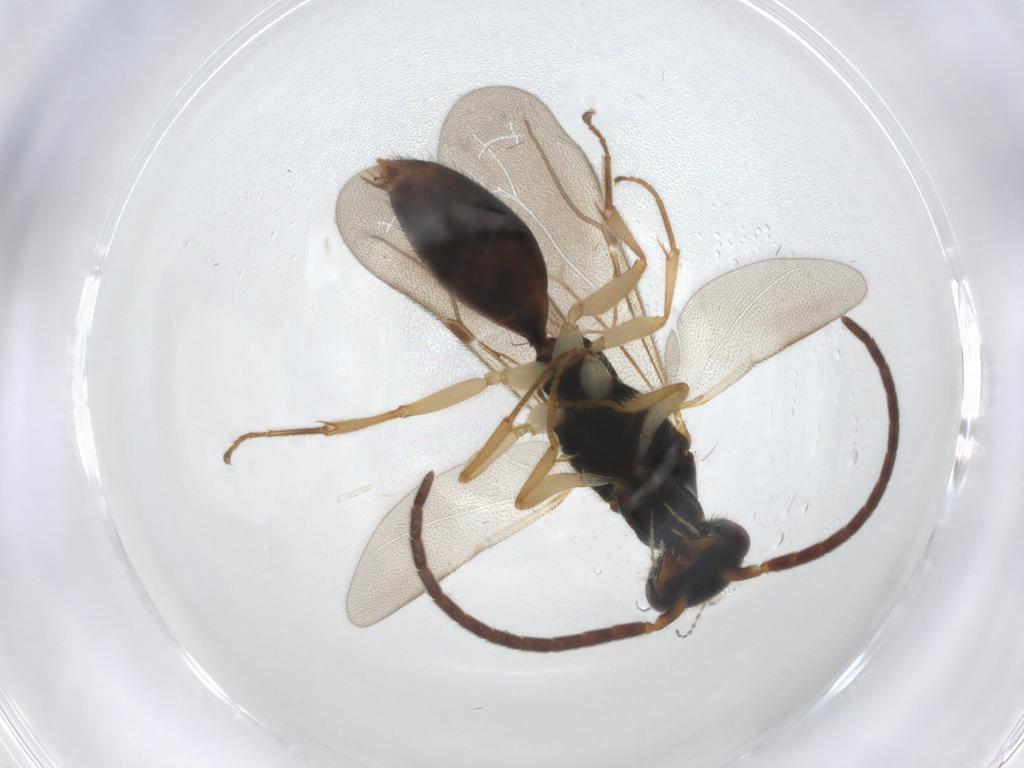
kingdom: Animalia
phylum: Arthropoda
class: Insecta
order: Hymenoptera
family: Bethylidae
